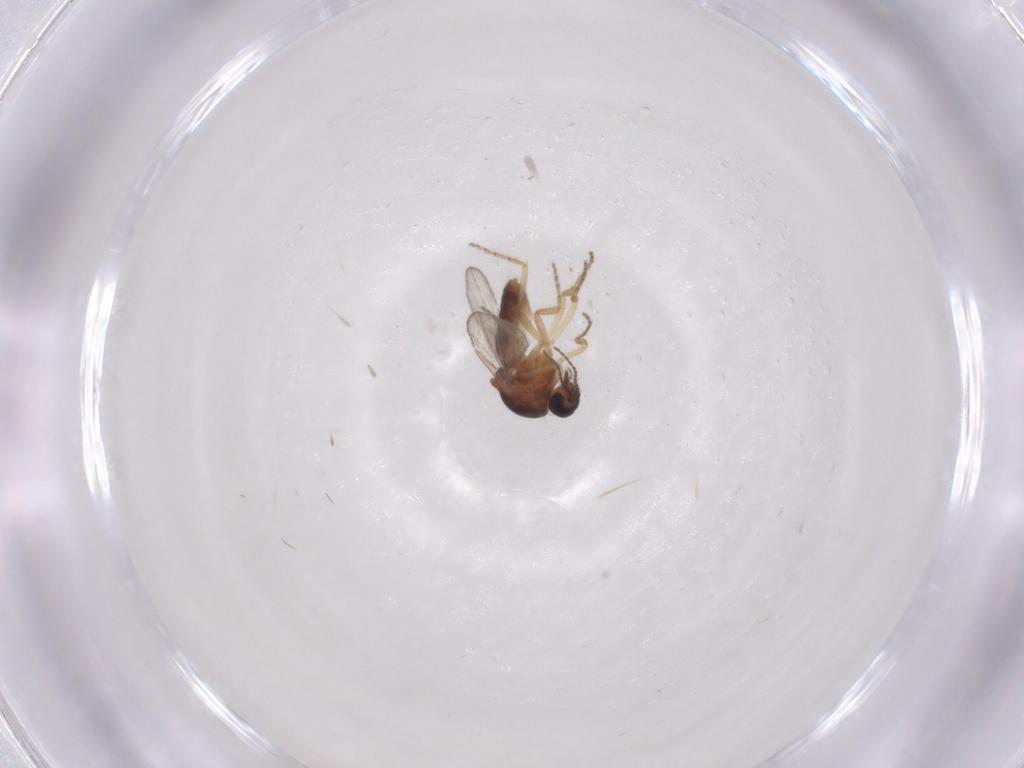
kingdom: Animalia
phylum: Arthropoda
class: Insecta
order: Diptera
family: Ceratopogonidae
